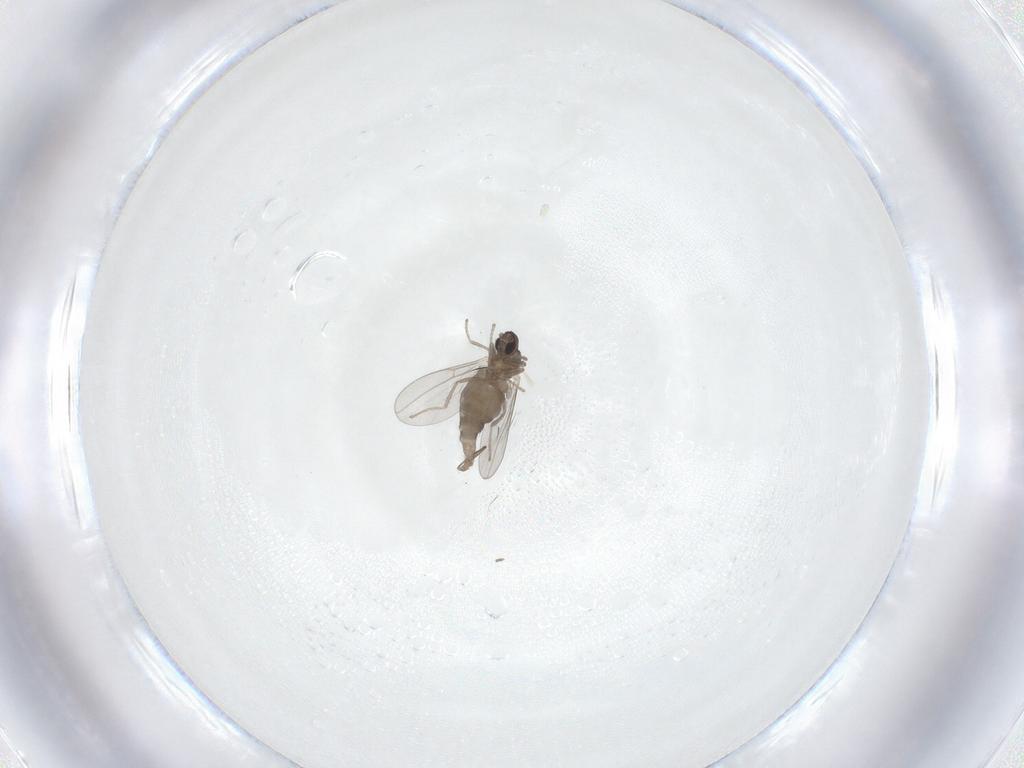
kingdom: Animalia
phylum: Arthropoda
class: Insecta
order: Diptera
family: Cecidomyiidae
